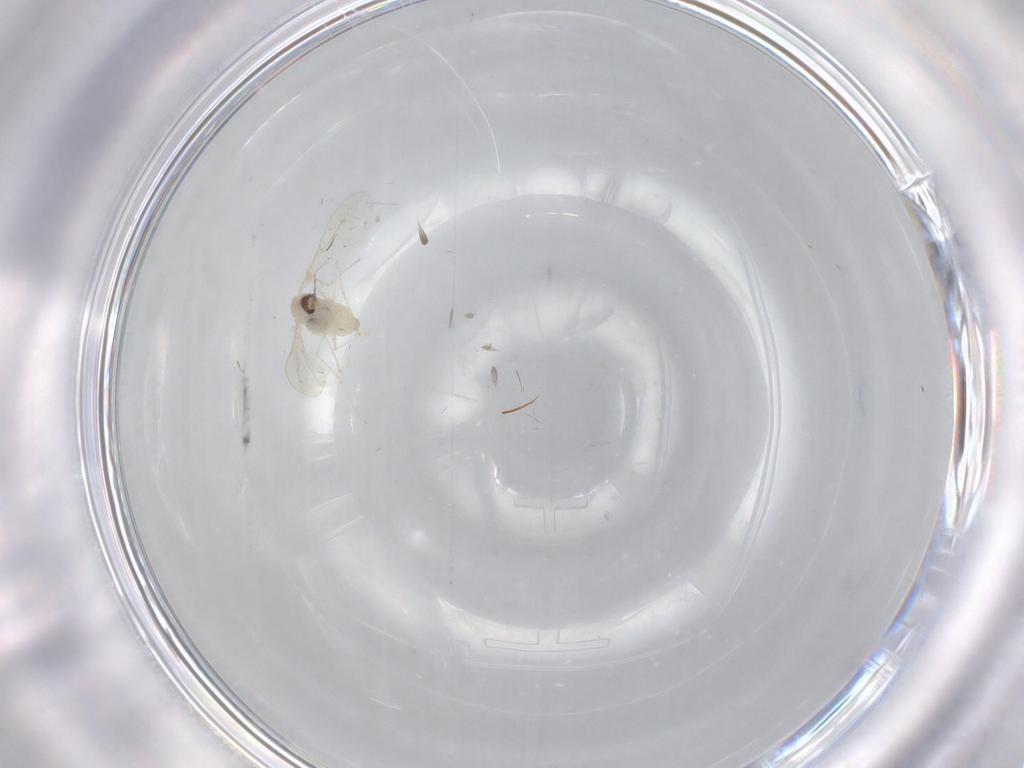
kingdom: Animalia
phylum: Arthropoda
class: Insecta
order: Diptera
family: Cecidomyiidae
